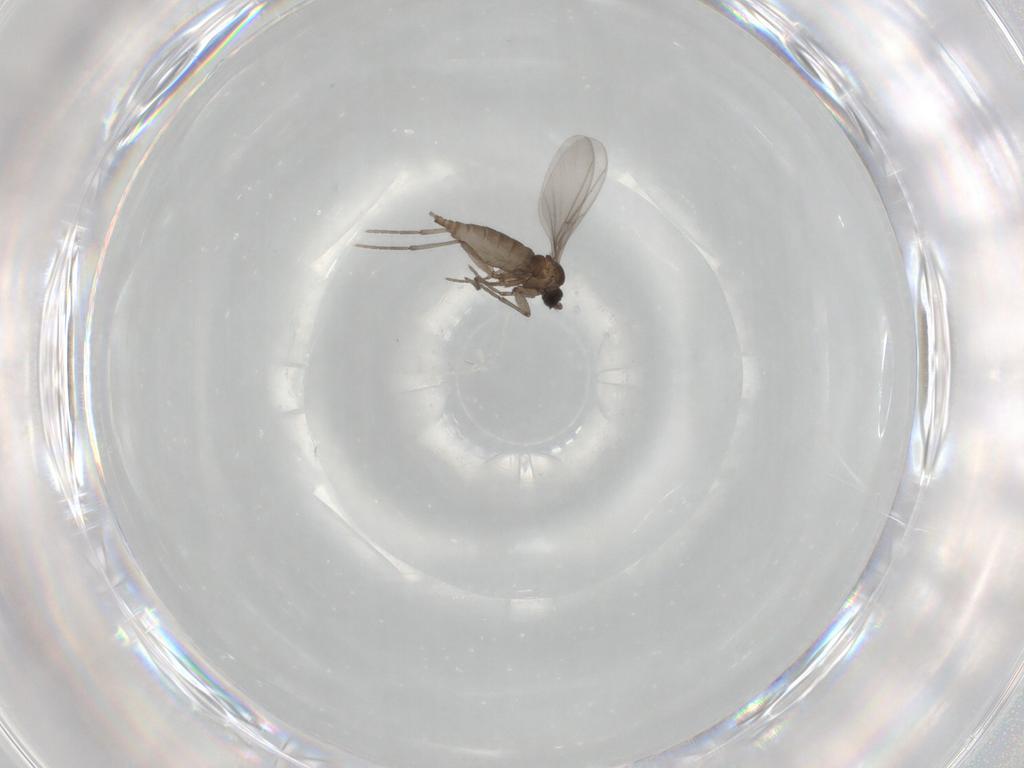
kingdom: Animalia
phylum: Arthropoda
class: Insecta
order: Diptera
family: Sciaridae
